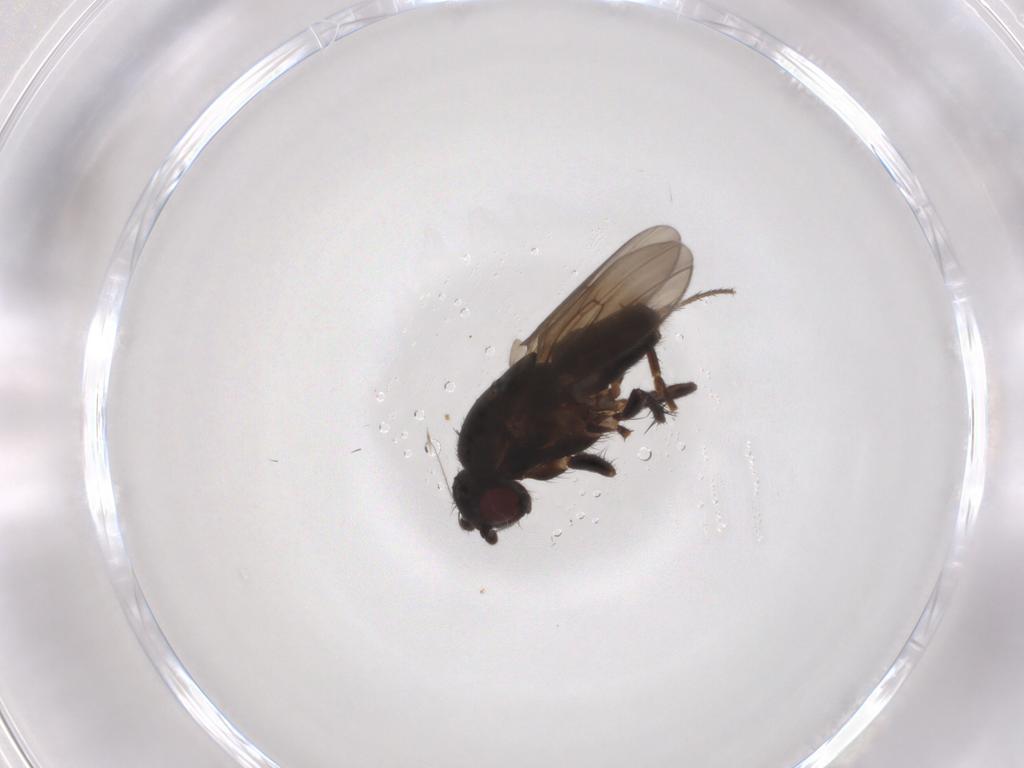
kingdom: Animalia
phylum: Arthropoda
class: Insecta
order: Diptera
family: Sphaeroceridae
